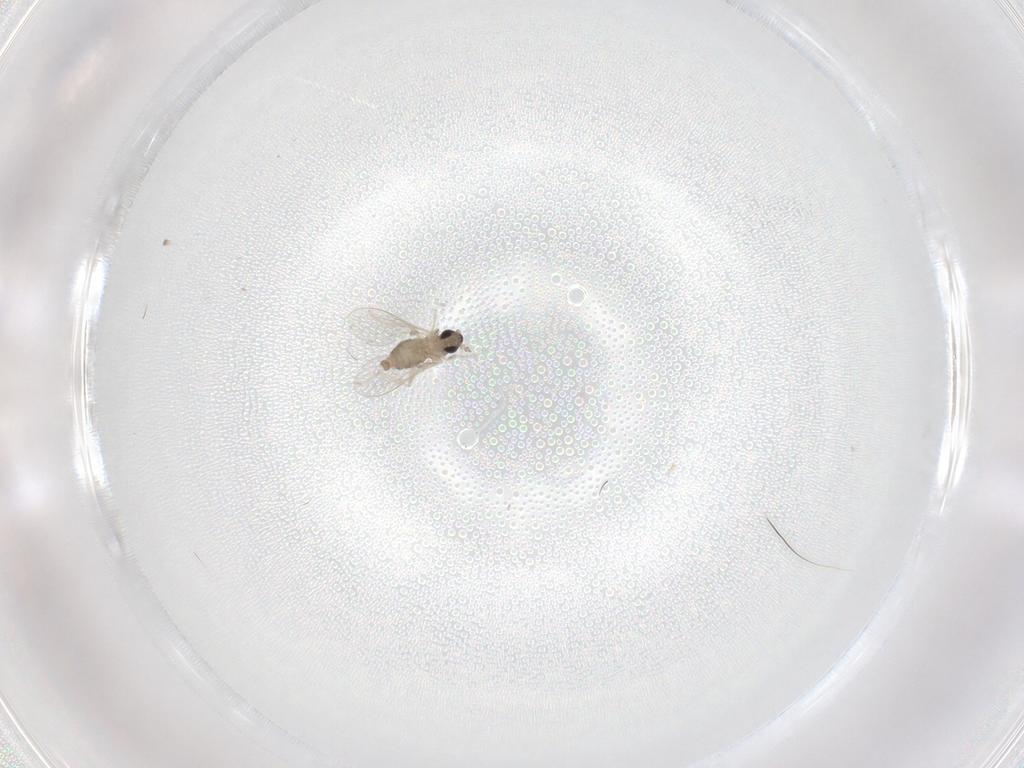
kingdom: Animalia
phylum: Arthropoda
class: Insecta
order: Diptera
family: Cecidomyiidae
